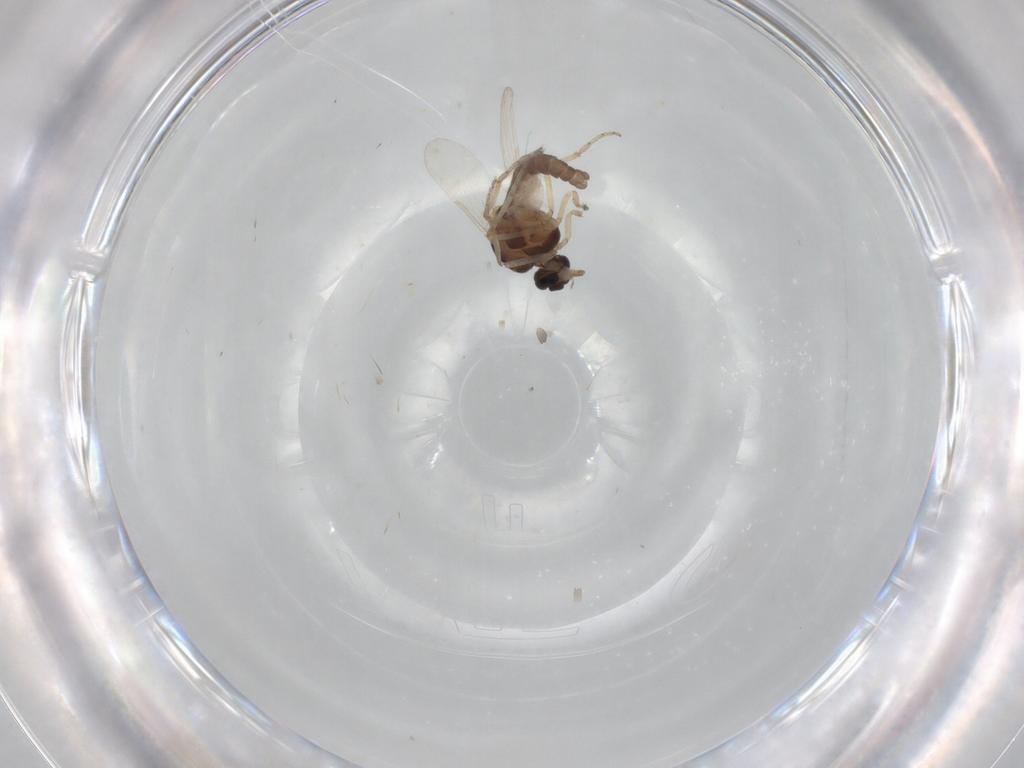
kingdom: Animalia
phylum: Arthropoda
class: Insecta
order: Diptera
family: Ceratopogonidae
